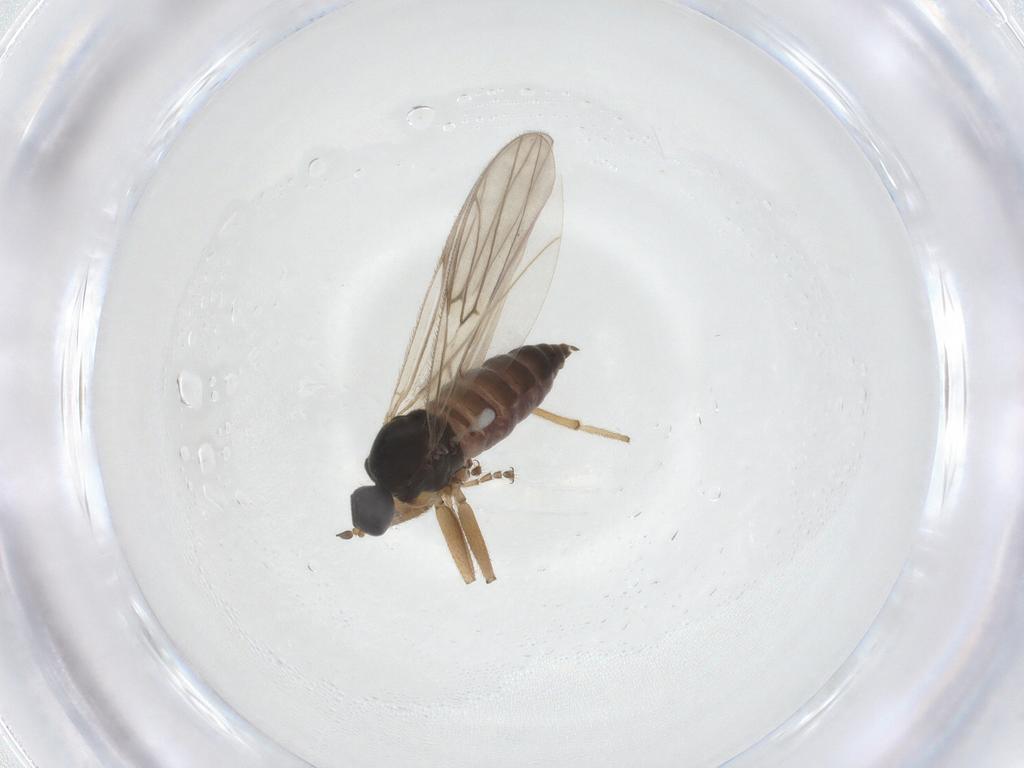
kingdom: Animalia
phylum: Arthropoda
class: Insecta
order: Diptera
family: Hybotidae
